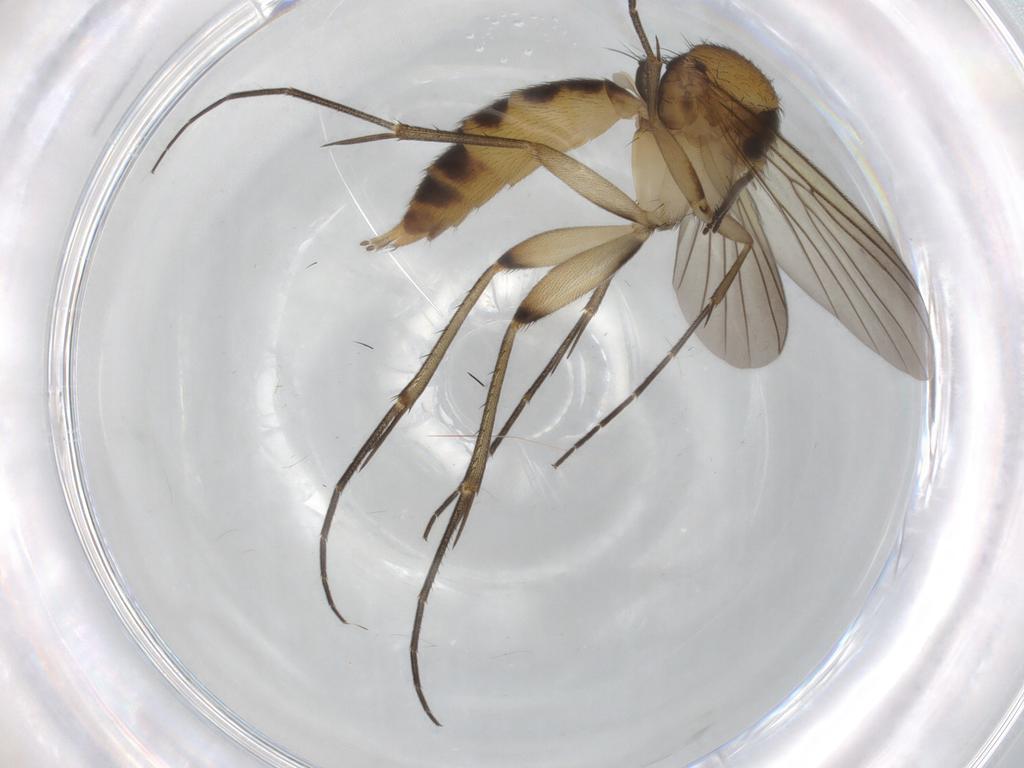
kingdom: Animalia
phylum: Arthropoda
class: Insecta
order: Diptera
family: Mycetophilidae
